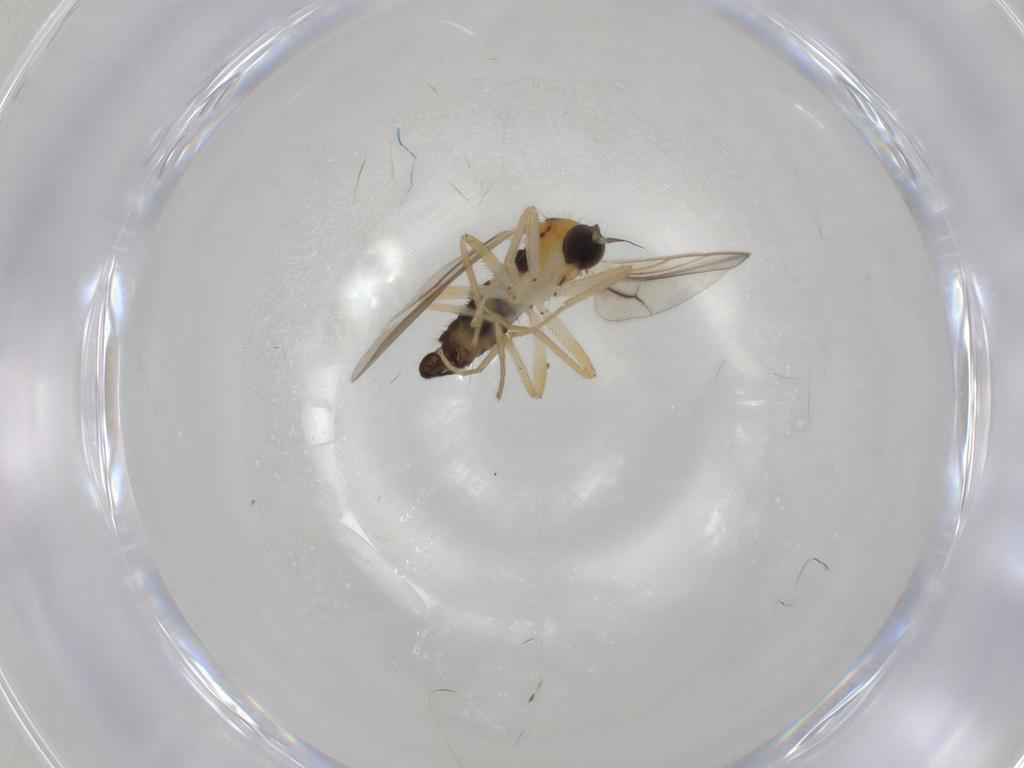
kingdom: Animalia
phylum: Arthropoda
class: Insecta
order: Diptera
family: Hybotidae
